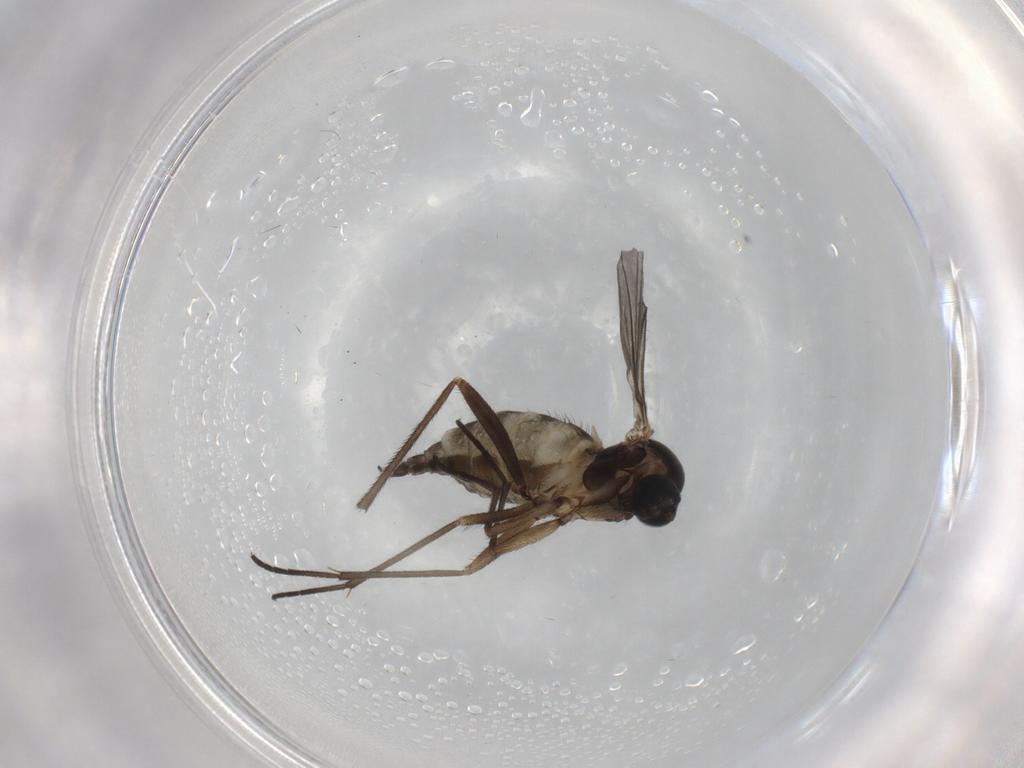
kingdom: Animalia
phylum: Arthropoda
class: Insecta
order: Diptera
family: Sciaridae
